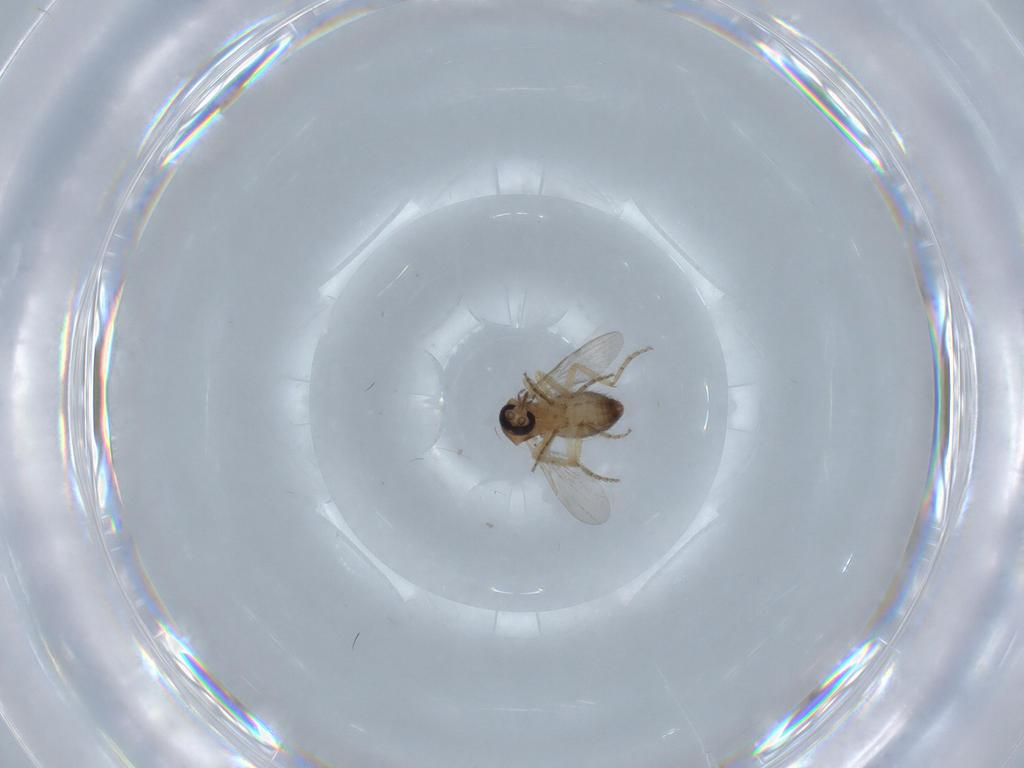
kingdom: Animalia
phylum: Arthropoda
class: Insecta
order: Diptera
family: Ceratopogonidae
